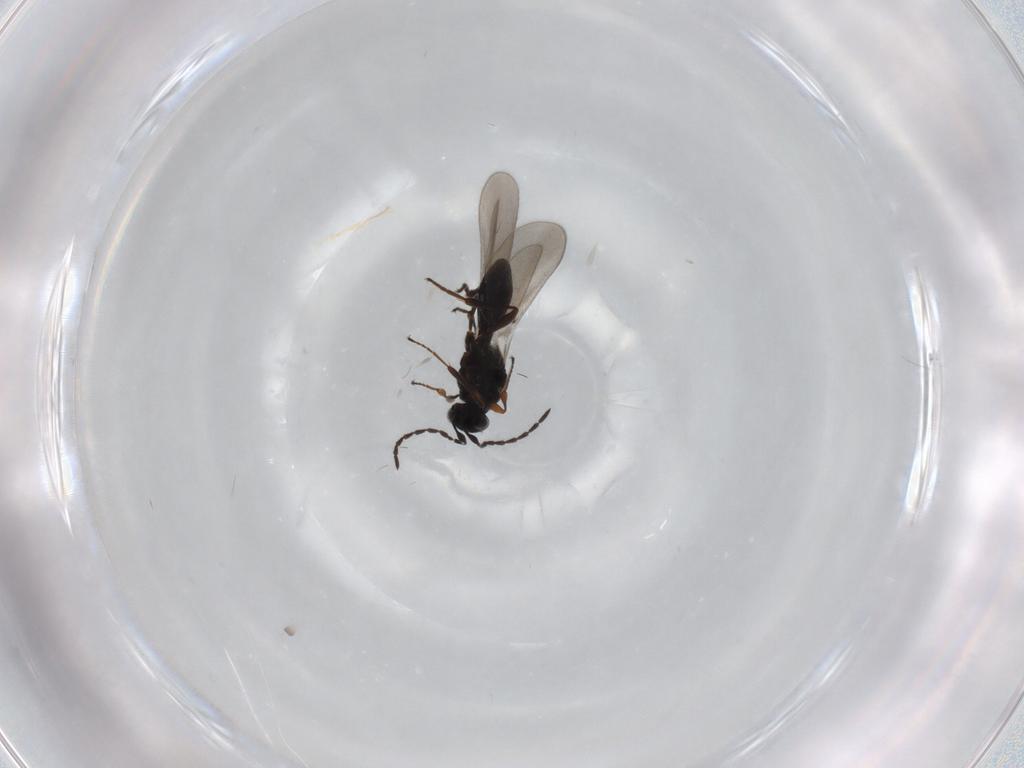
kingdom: Animalia
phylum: Arthropoda
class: Insecta
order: Hymenoptera
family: Platygastridae
